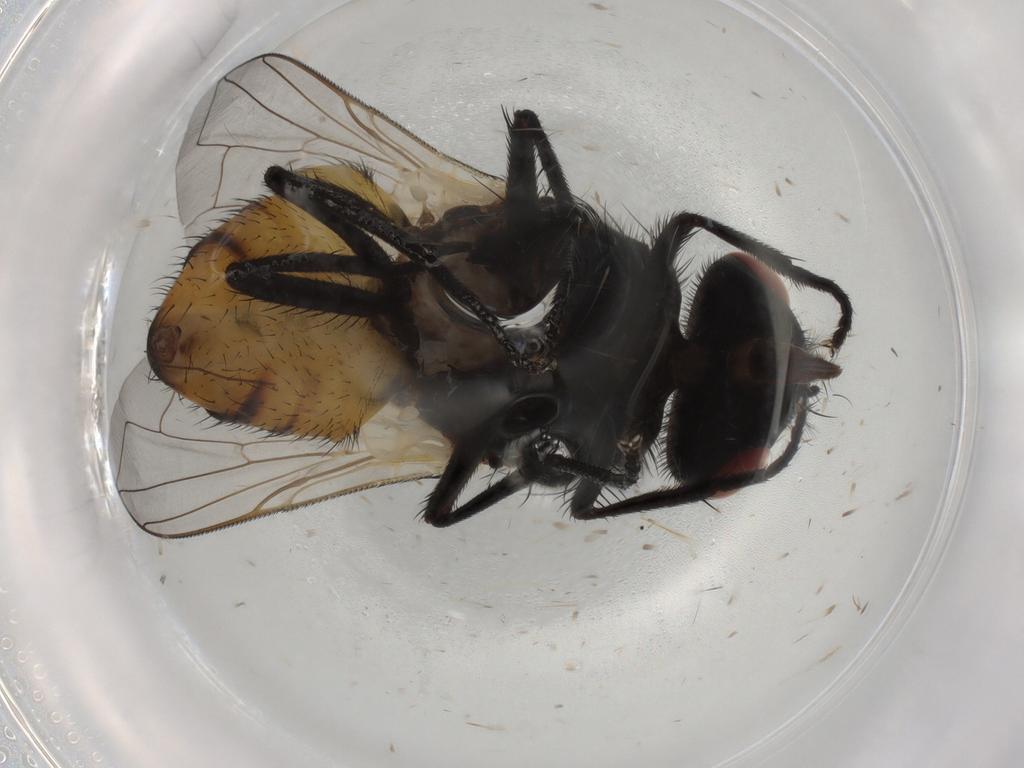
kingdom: Animalia
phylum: Arthropoda
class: Insecta
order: Diptera
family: Muscidae
